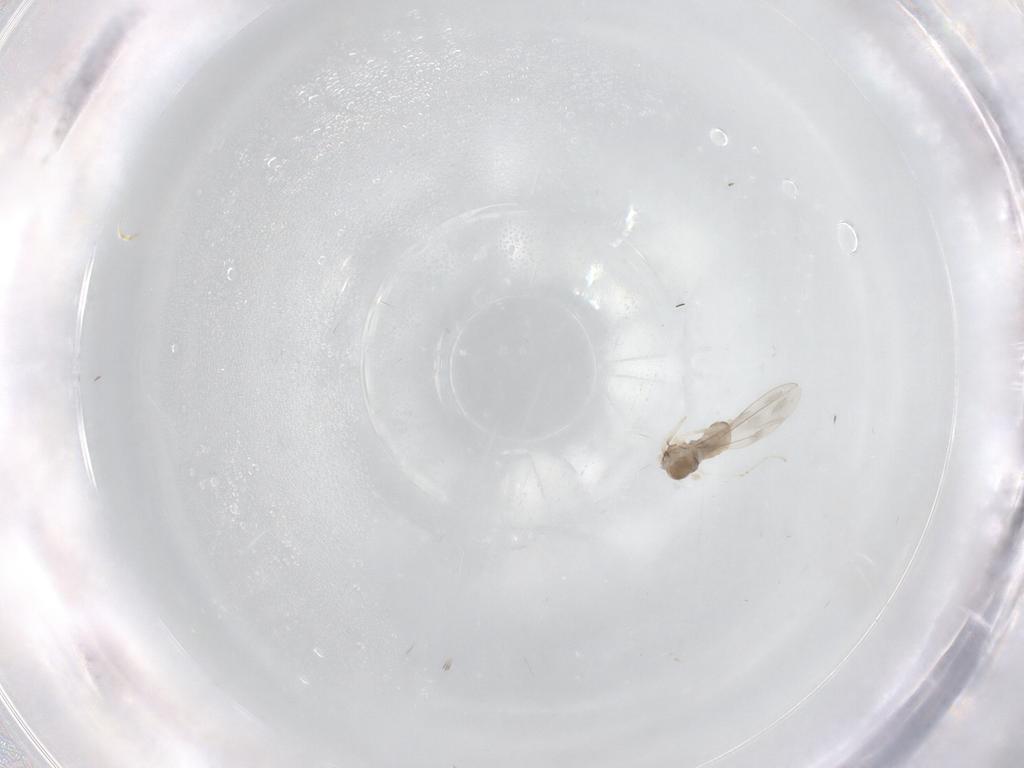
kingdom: Animalia
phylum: Arthropoda
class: Insecta
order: Diptera
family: Cecidomyiidae
